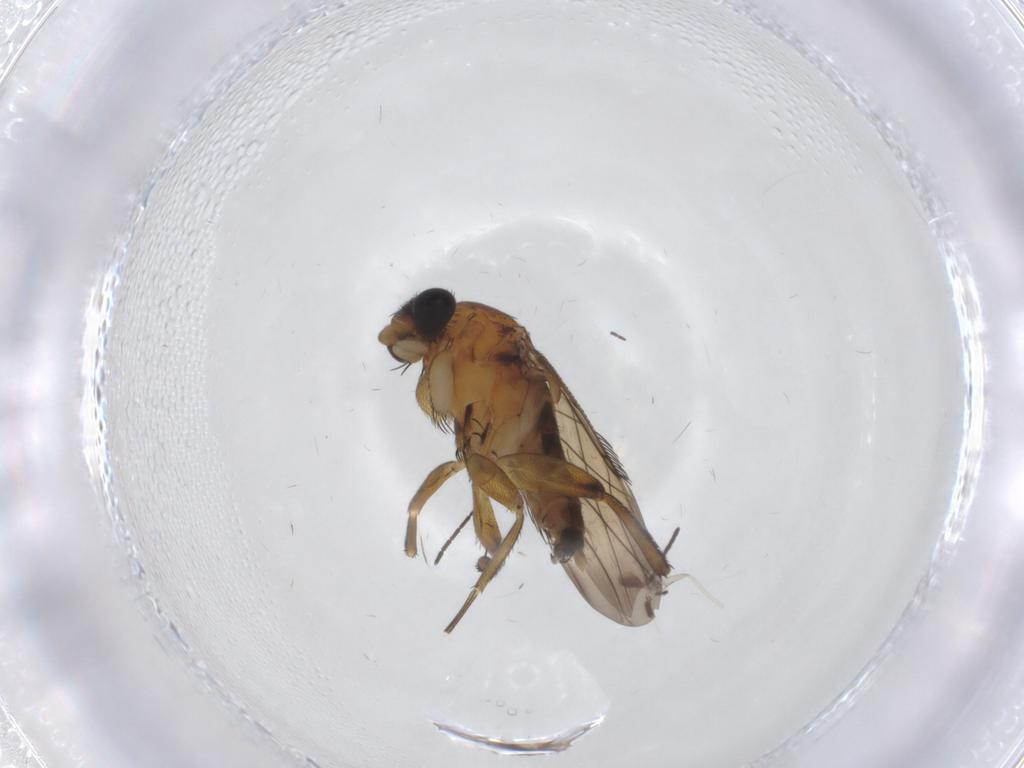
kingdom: Animalia
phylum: Arthropoda
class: Insecta
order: Diptera
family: Phoridae
